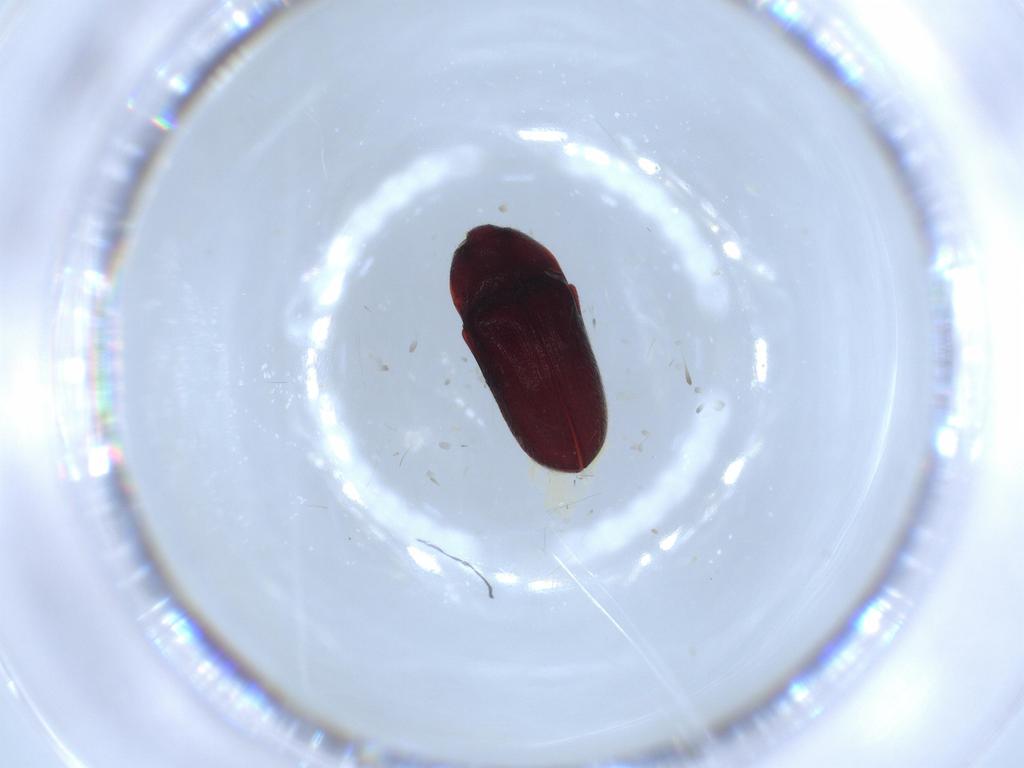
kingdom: Animalia
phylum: Arthropoda
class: Insecta
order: Coleoptera
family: Throscidae
